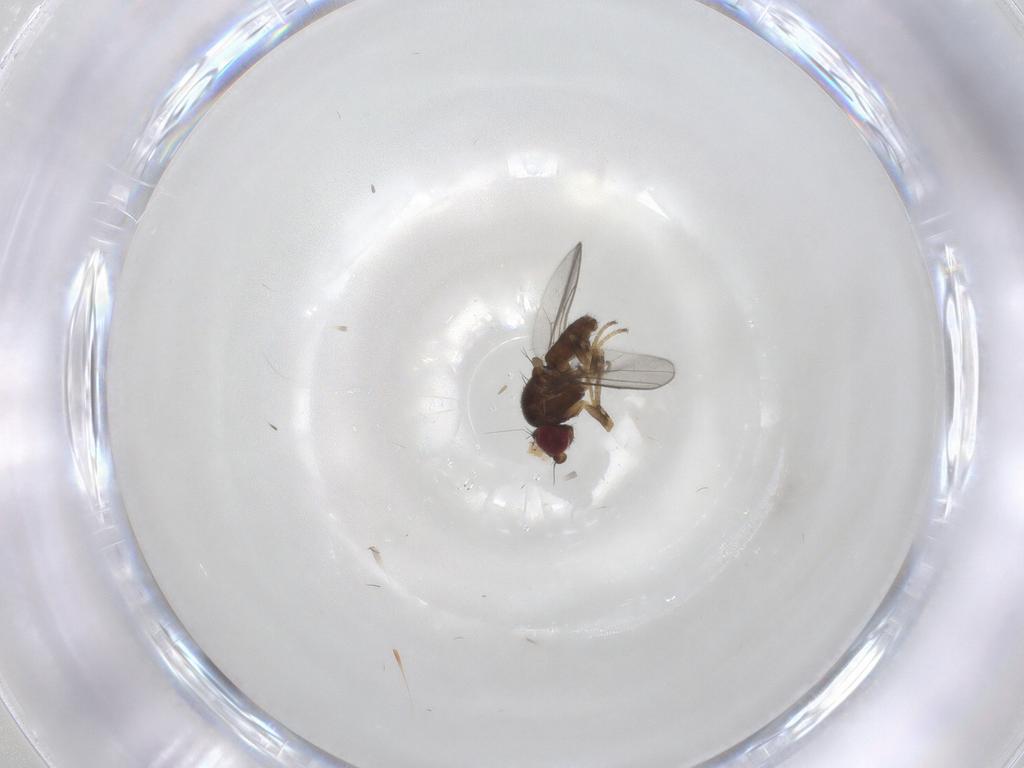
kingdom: Animalia
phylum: Arthropoda
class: Insecta
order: Diptera
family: Chloropidae
